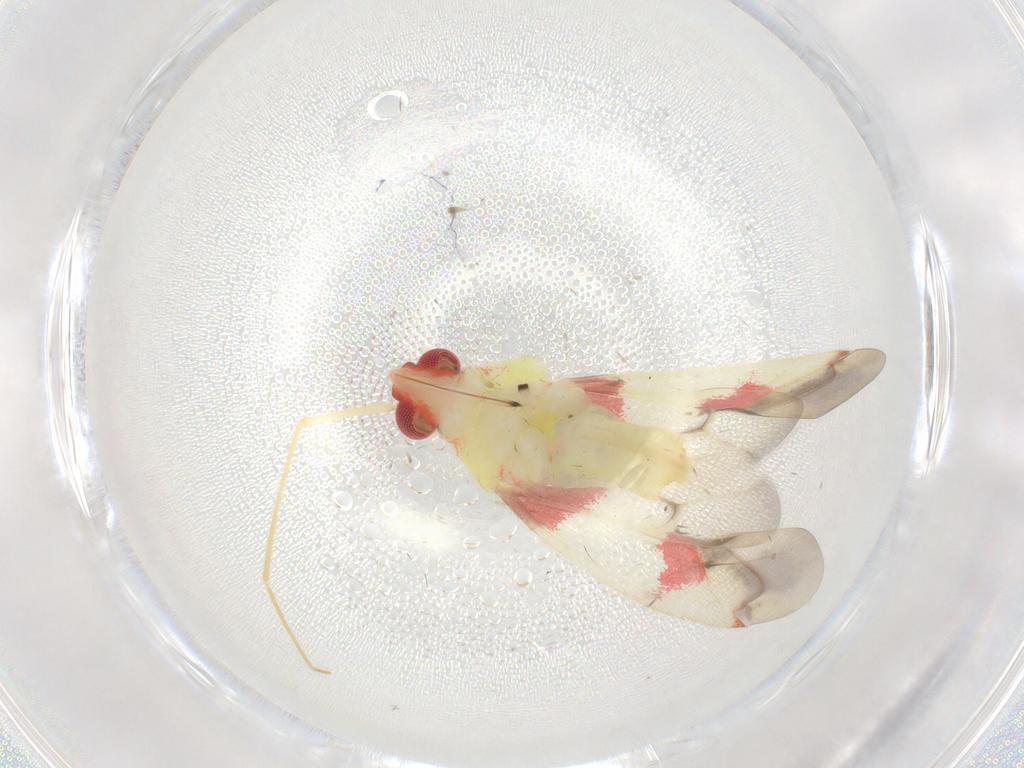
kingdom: Animalia
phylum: Arthropoda
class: Insecta
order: Hemiptera
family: Miridae
